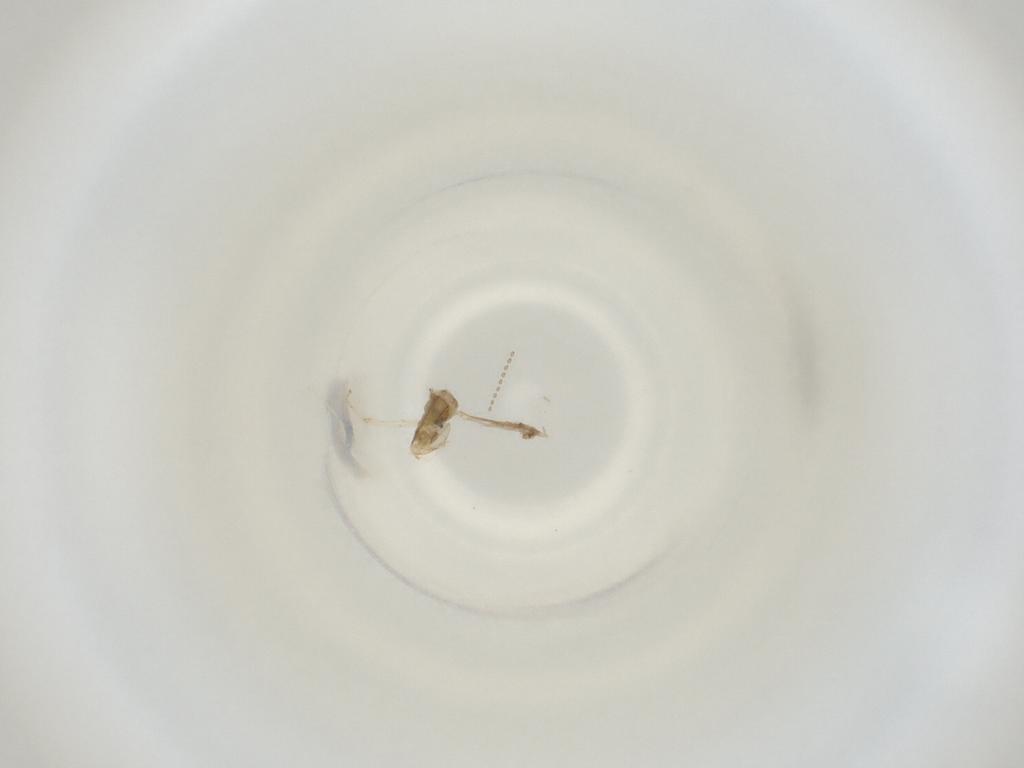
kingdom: Animalia
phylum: Arthropoda
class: Insecta
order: Diptera
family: Cecidomyiidae
